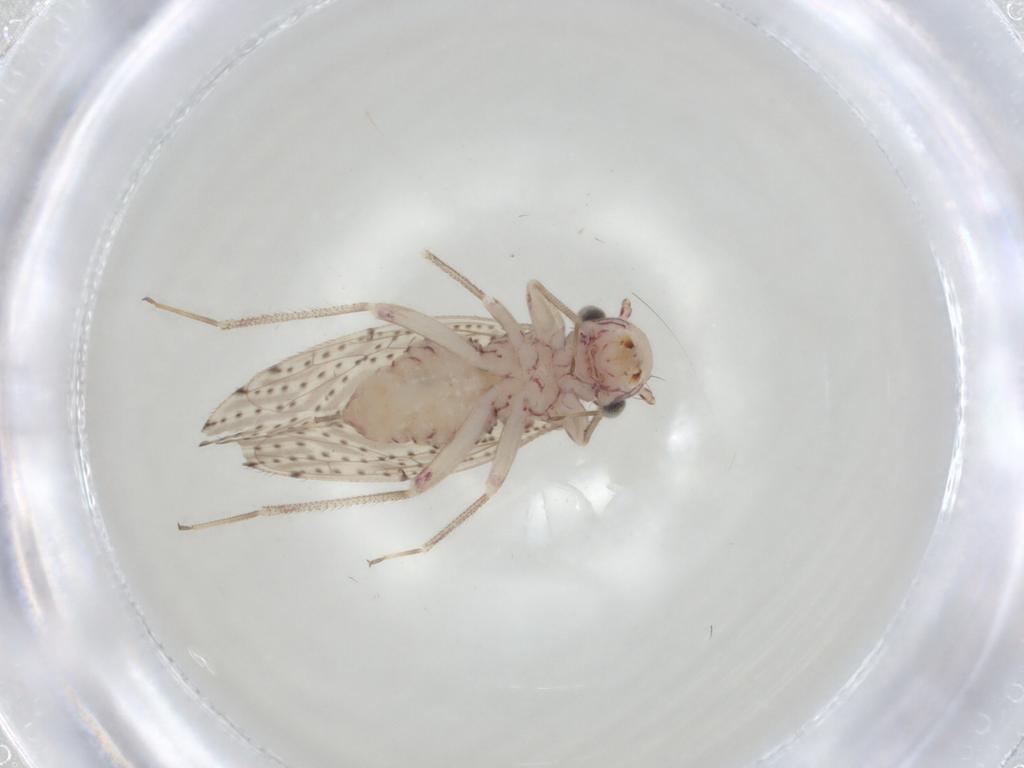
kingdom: Animalia
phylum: Arthropoda
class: Insecta
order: Psocodea
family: Philotarsidae
